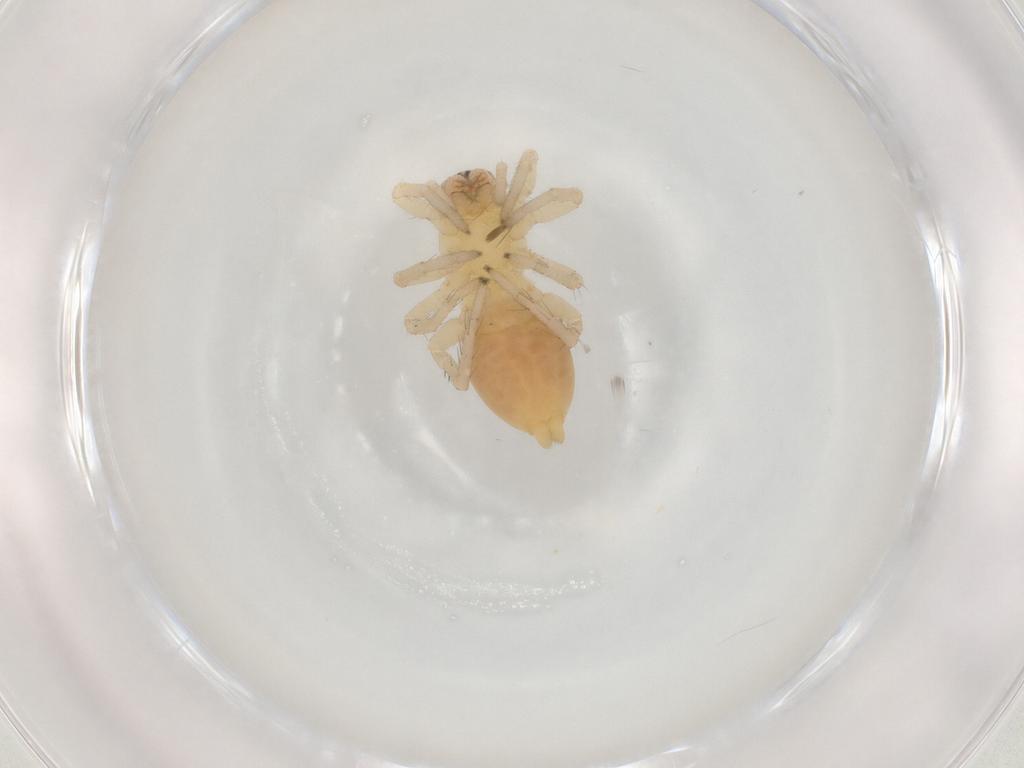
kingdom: Animalia
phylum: Arthropoda
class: Arachnida
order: Araneae
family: Clubionidae
